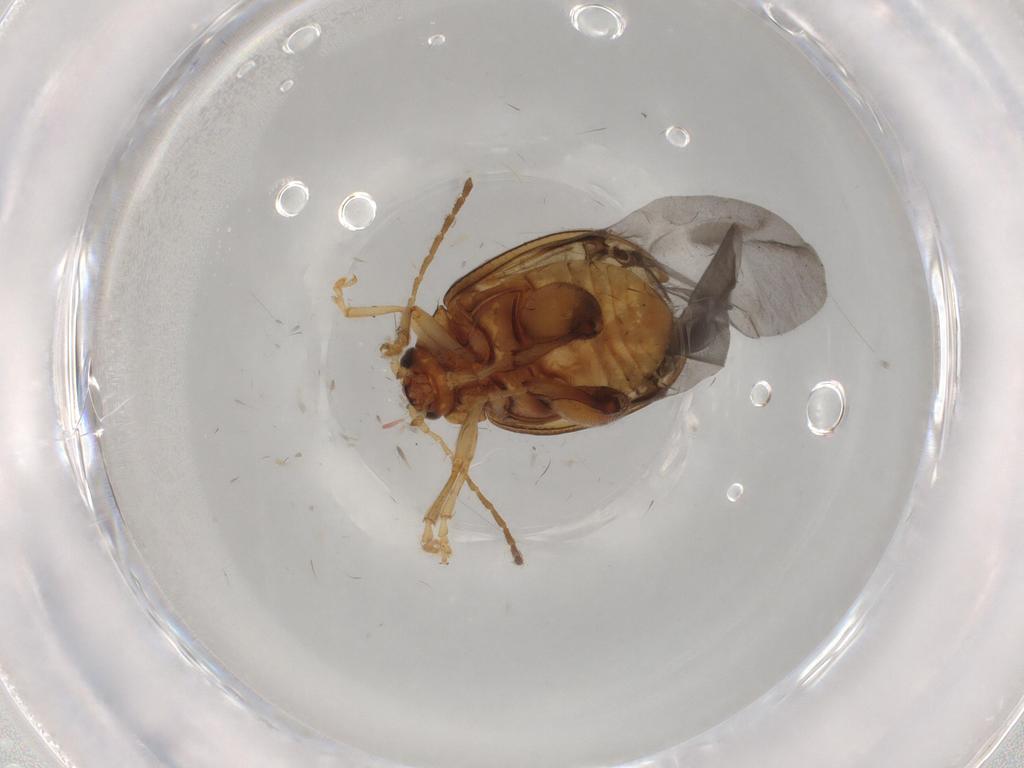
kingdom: Animalia
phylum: Arthropoda
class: Insecta
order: Coleoptera
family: Chrysomelidae
